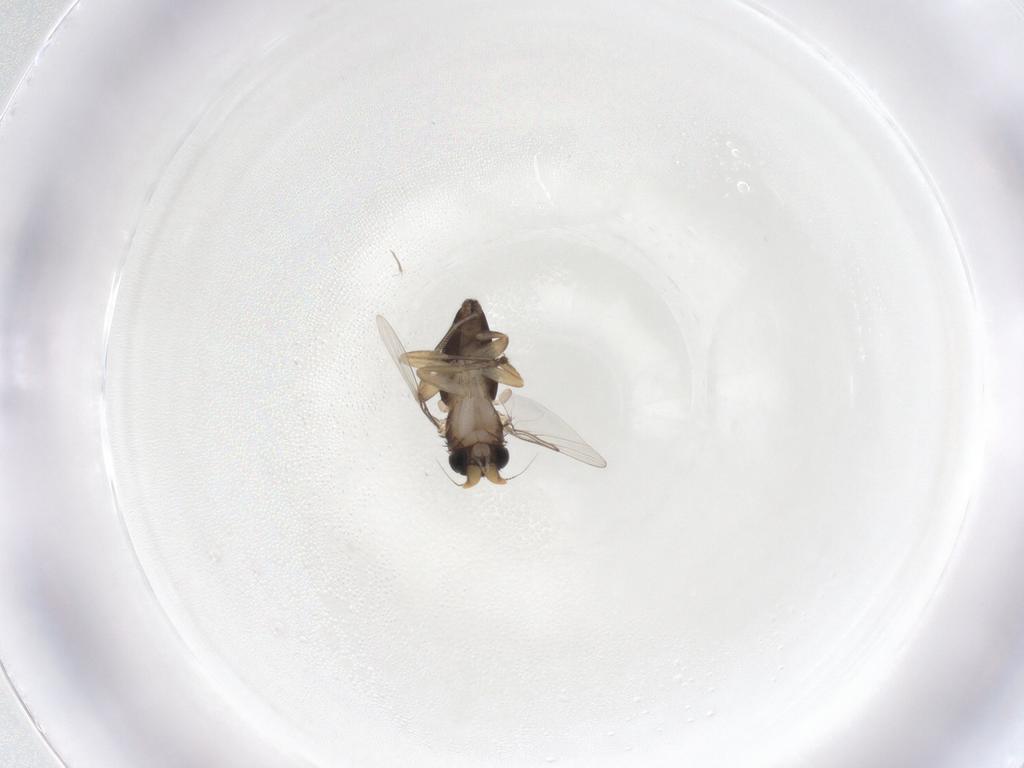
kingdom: Animalia
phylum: Arthropoda
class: Insecta
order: Diptera
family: Phoridae
